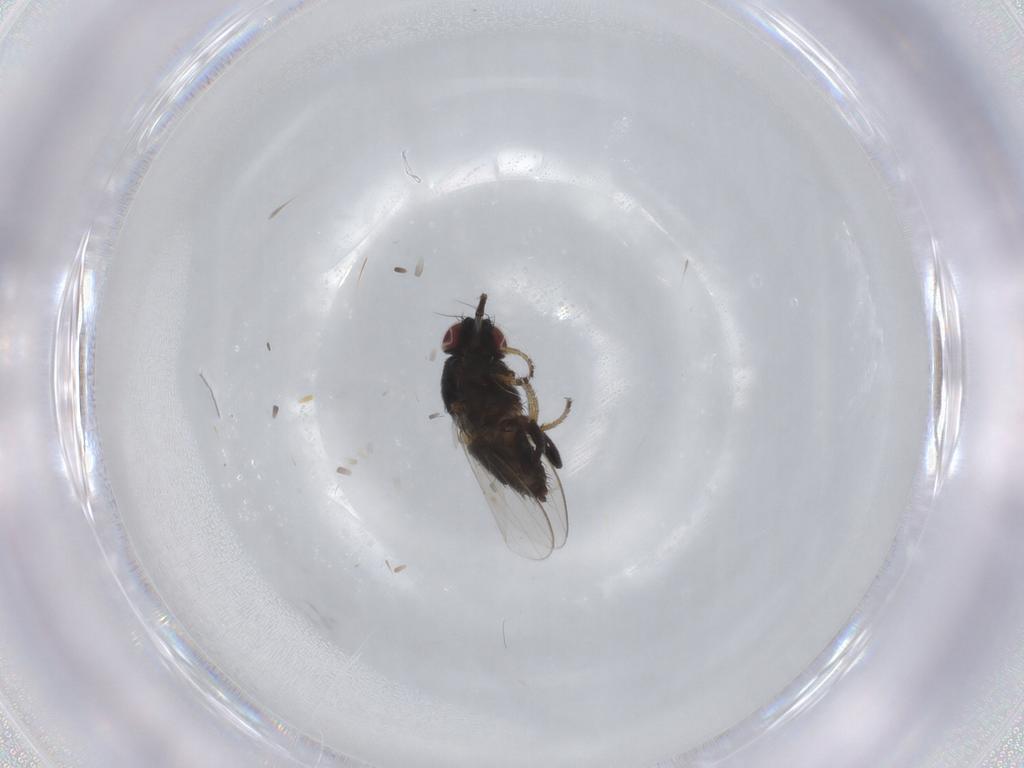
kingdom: Animalia
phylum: Arthropoda
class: Insecta
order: Diptera
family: Milichiidae
